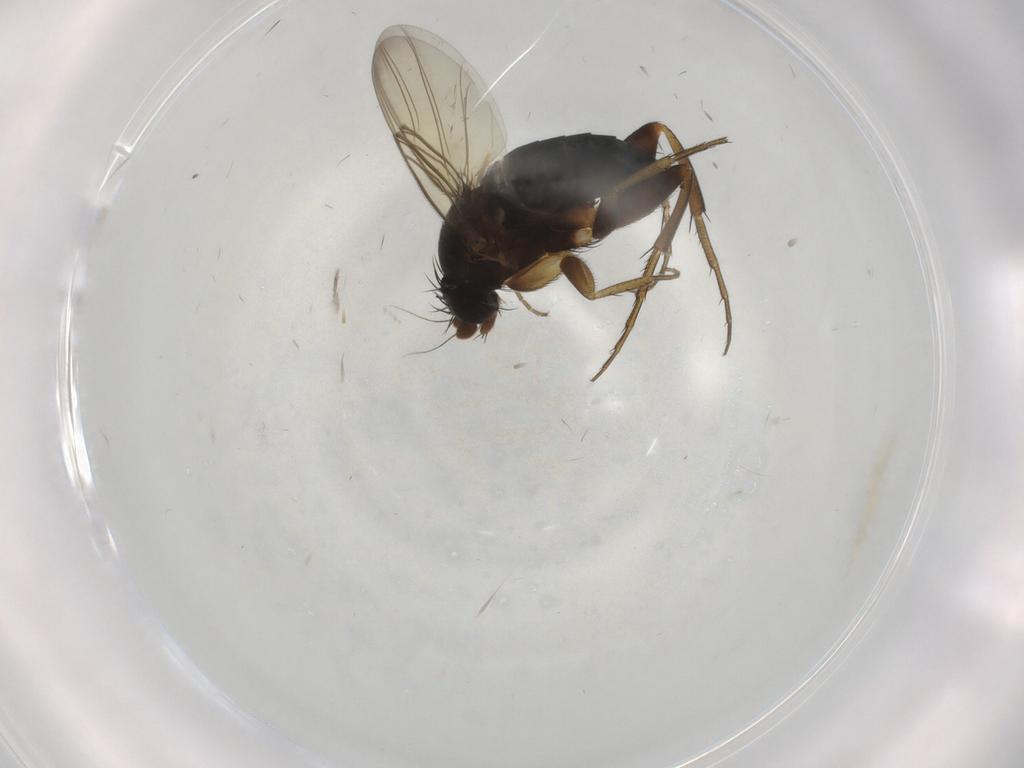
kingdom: Animalia
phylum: Arthropoda
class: Insecta
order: Diptera
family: Phoridae
